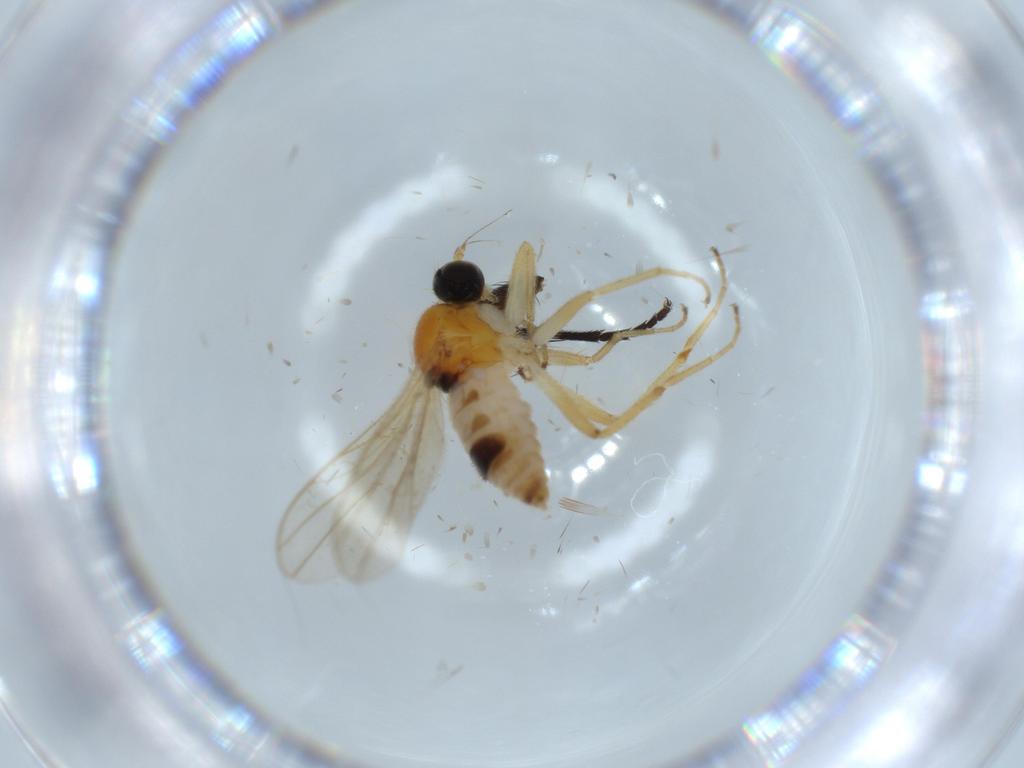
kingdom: Animalia
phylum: Arthropoda
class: Insecta
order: Diptera
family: Hybotidae
